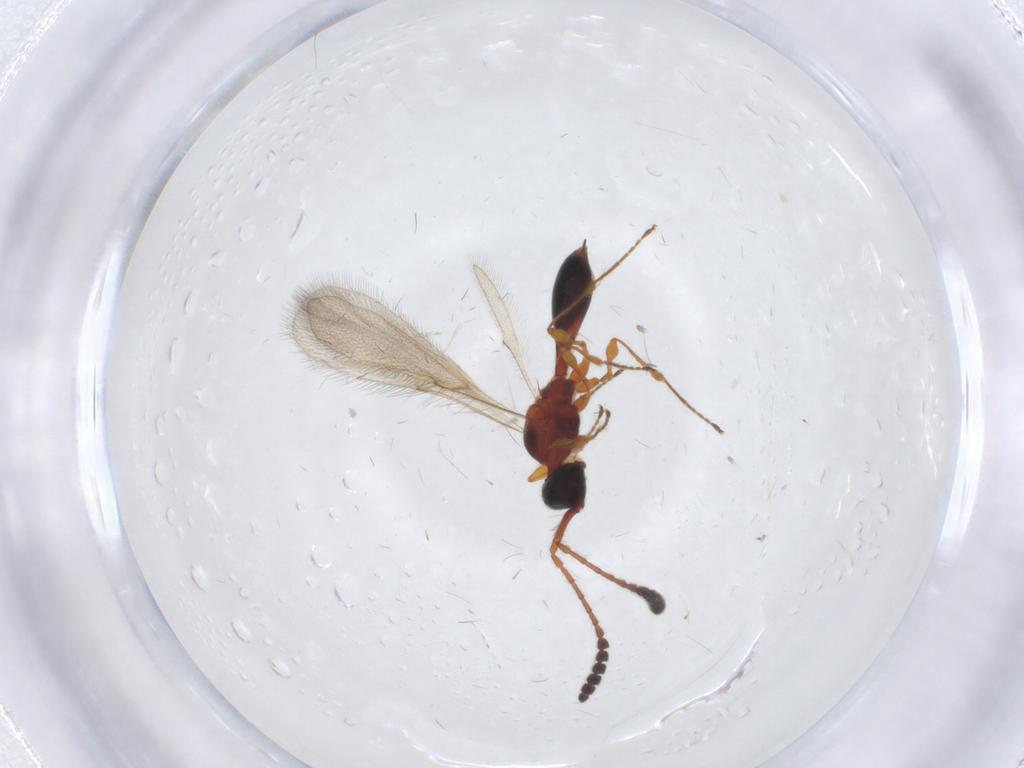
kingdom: Animalia
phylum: Arthropoda
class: Insecta
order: Hymenoptera
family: Diapriidae
